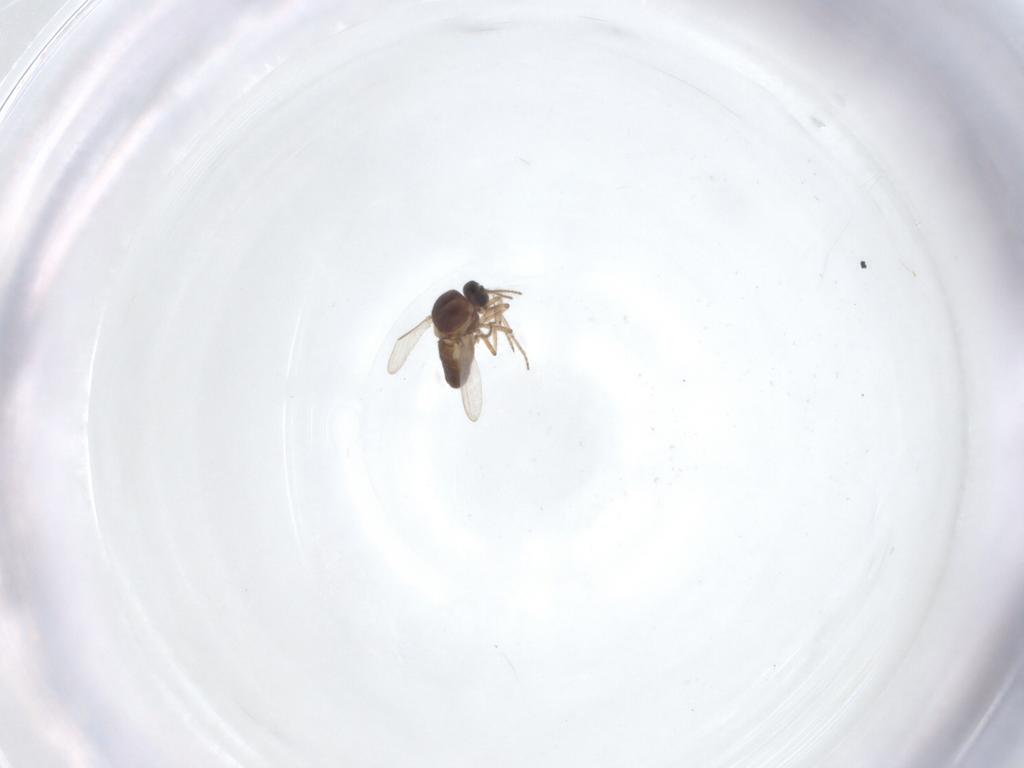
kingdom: Animalia
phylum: Arthropoda
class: Insecta
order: Diptera
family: Ceratopogonidae
